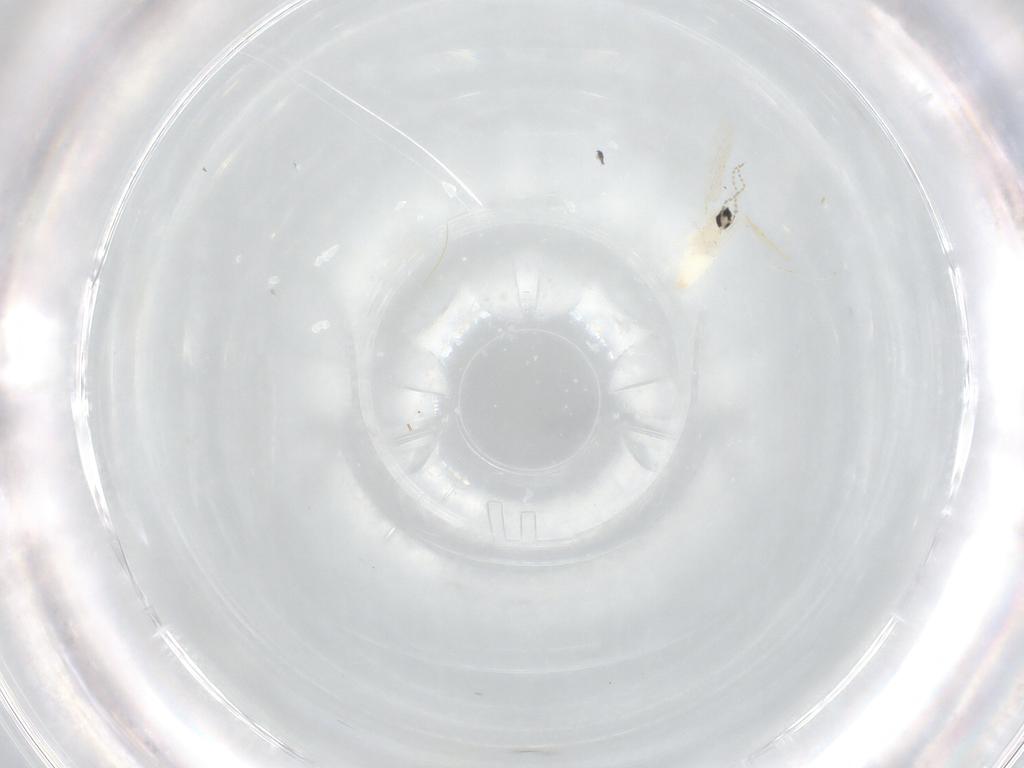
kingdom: Animalia
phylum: Arthropoda
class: Insecta
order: Diptera
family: Cecidomyiidae
